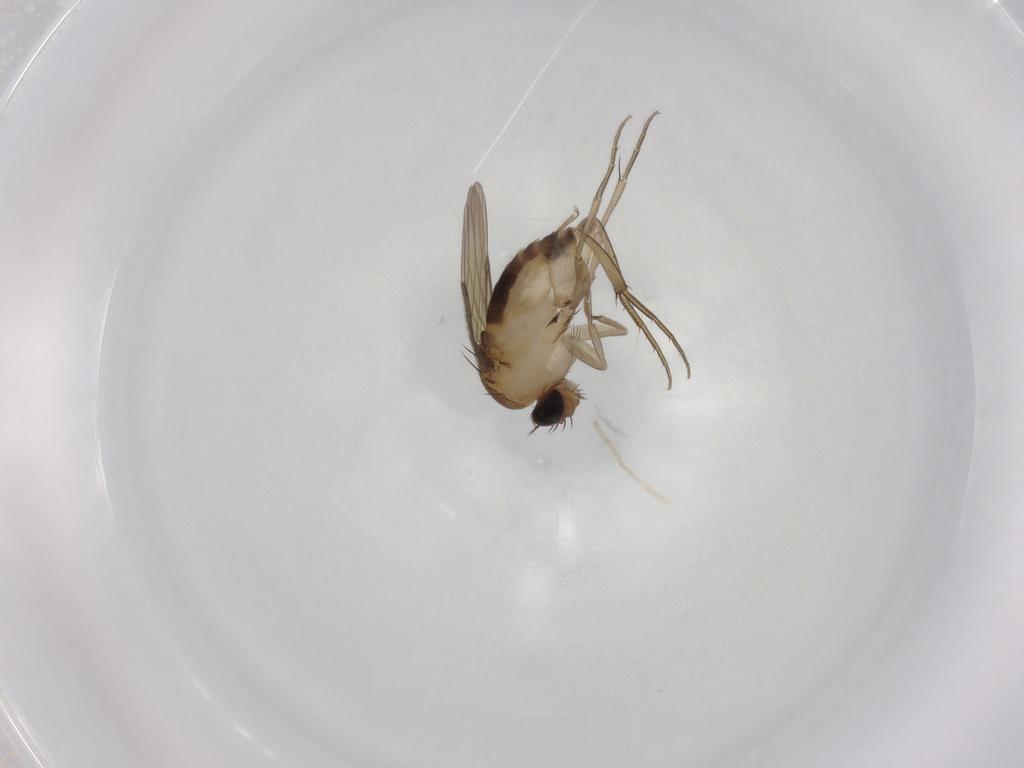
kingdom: Animalia
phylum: Arthropoda
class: Insecta
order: Diptera
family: Phoridae
